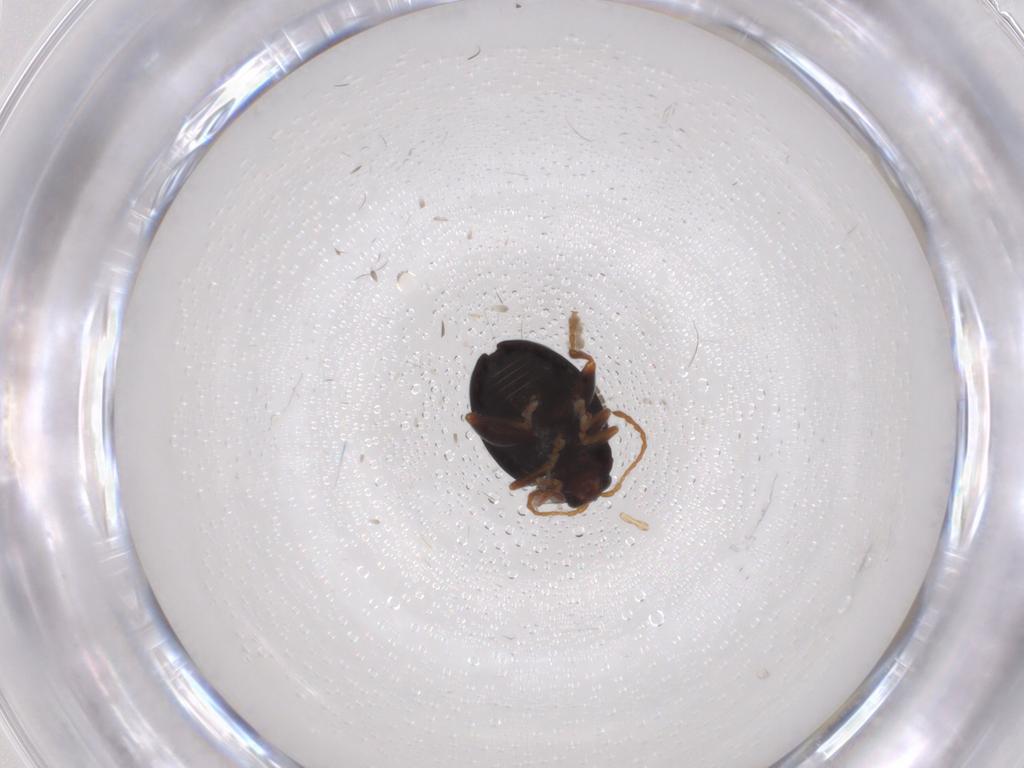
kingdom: Animalia
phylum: Arthropoda
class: Insecta
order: Coleoptera
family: Chrysomelidae
